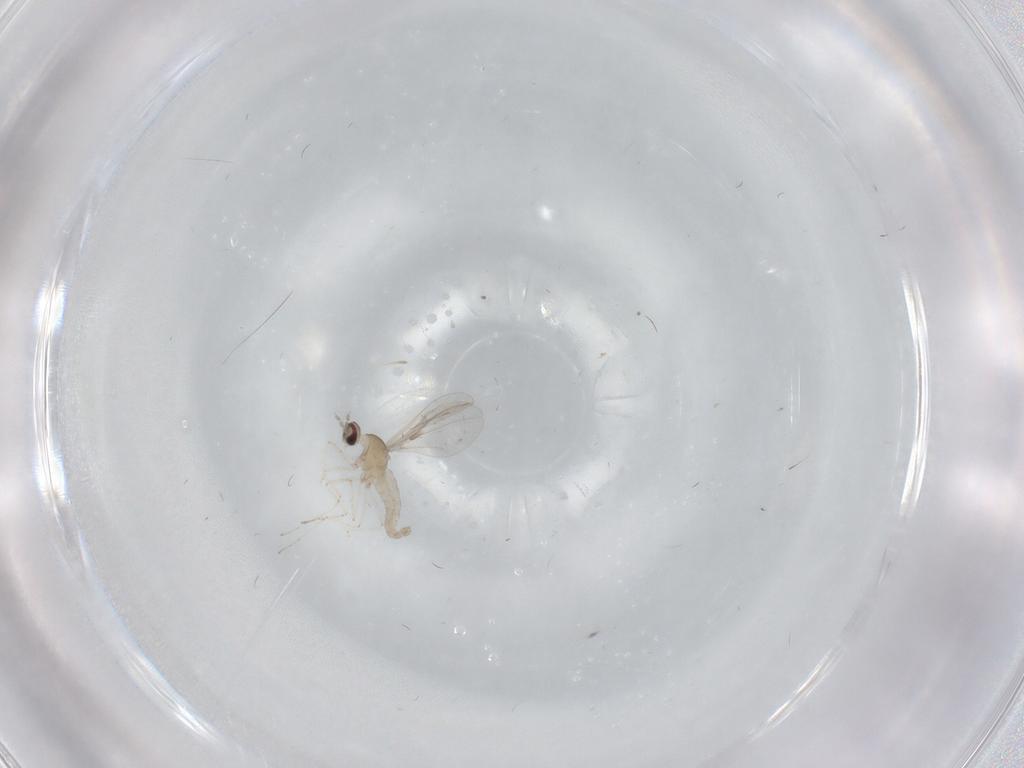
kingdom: Animalia
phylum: Arthropoda
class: Insecta
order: Diptera
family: Cecidomyiidae
